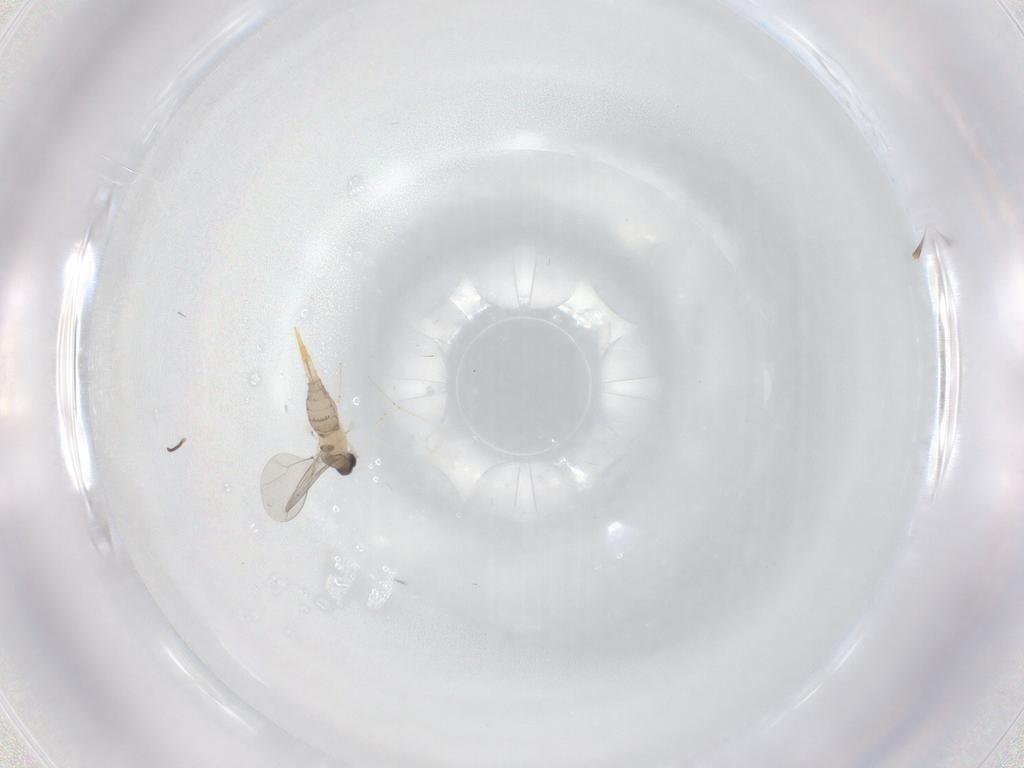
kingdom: Animalia
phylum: Arthropoda
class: Insecta
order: Diptera
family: Cecidomyiidae
